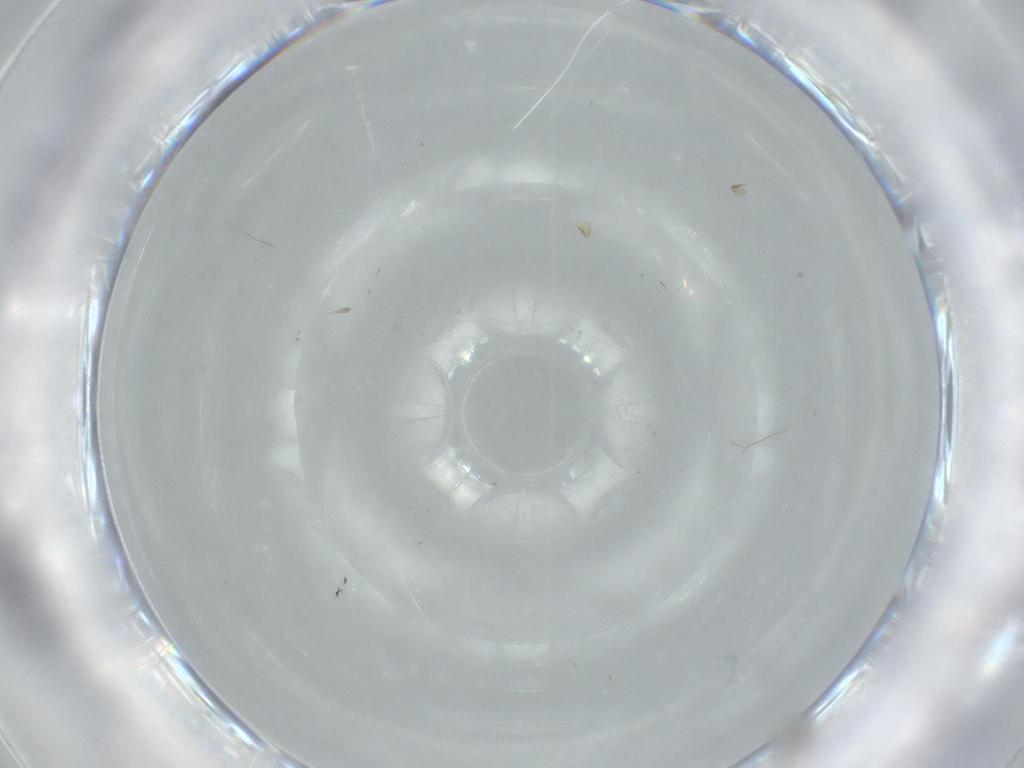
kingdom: Animalia
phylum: Arthropoda
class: Insecta
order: Psocodea
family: Liposcelididae
